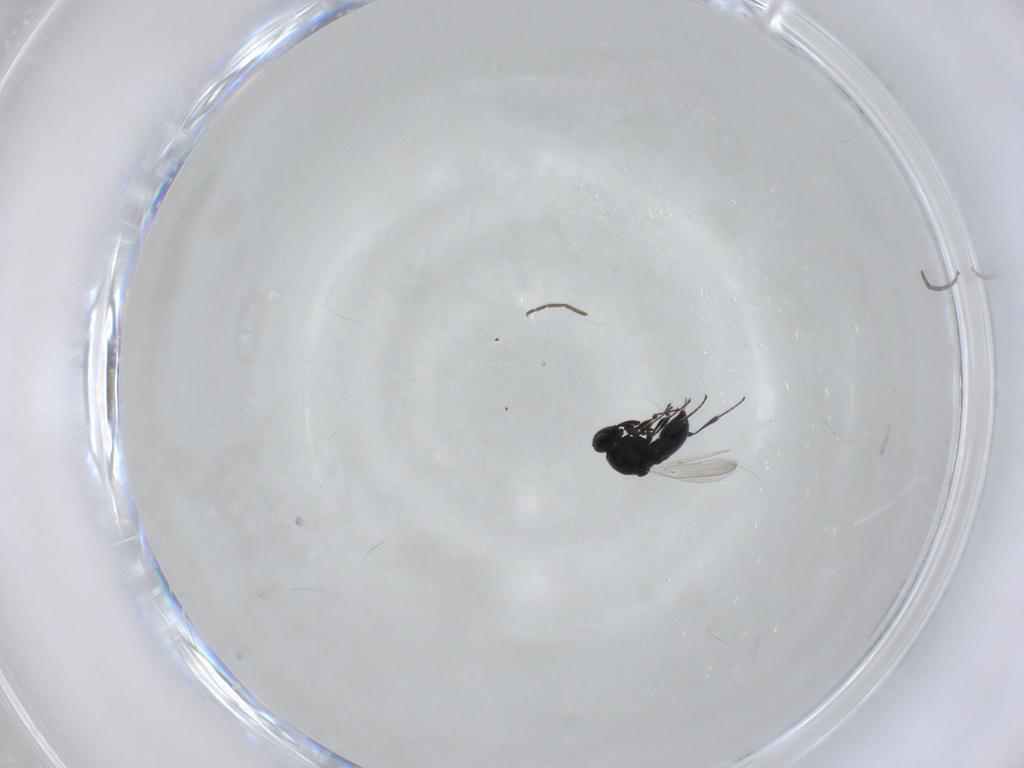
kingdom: Animalia
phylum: Arthropoda
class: Insecta
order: Hymenoptera
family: Platygastridae
